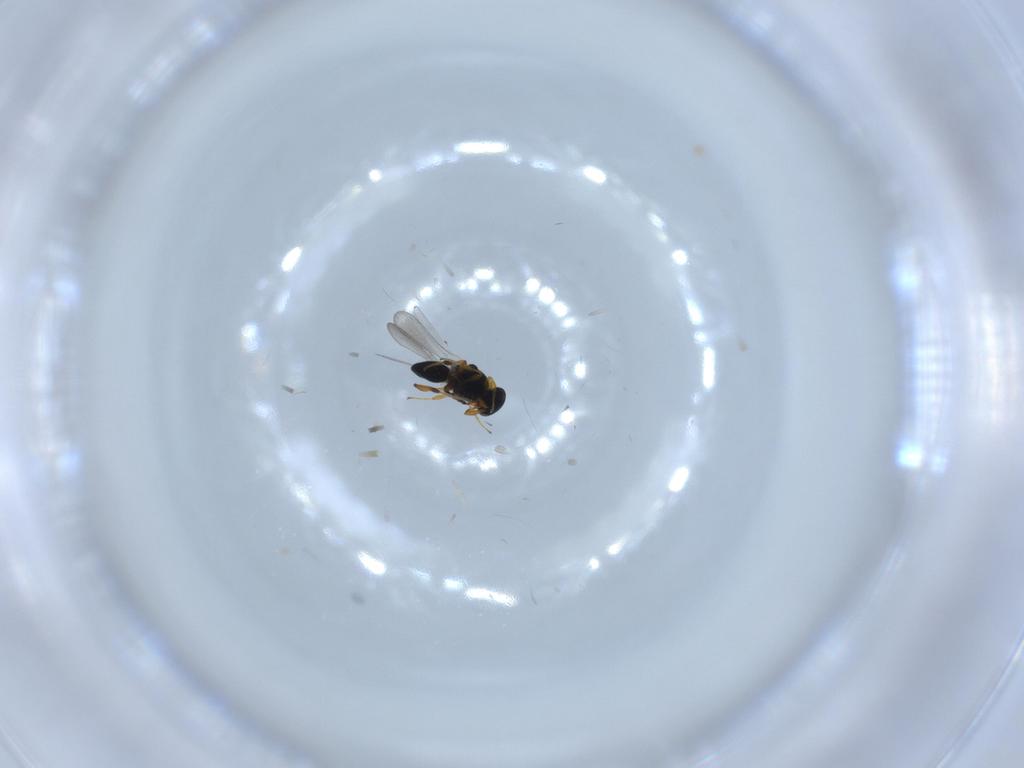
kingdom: Animalia
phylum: Arthropoda
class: Insecta
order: Hymenoptera
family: Platygastridae
